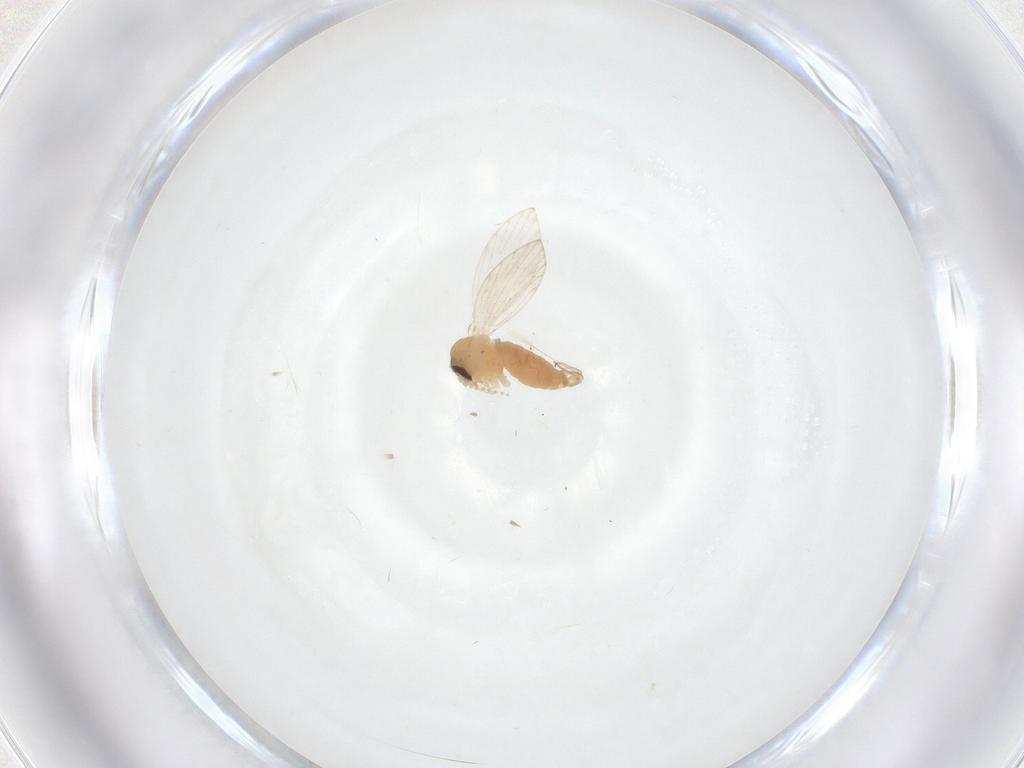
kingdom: Animalia
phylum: Arthropoda
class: Insecta
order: Diptera
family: Psychodidae
